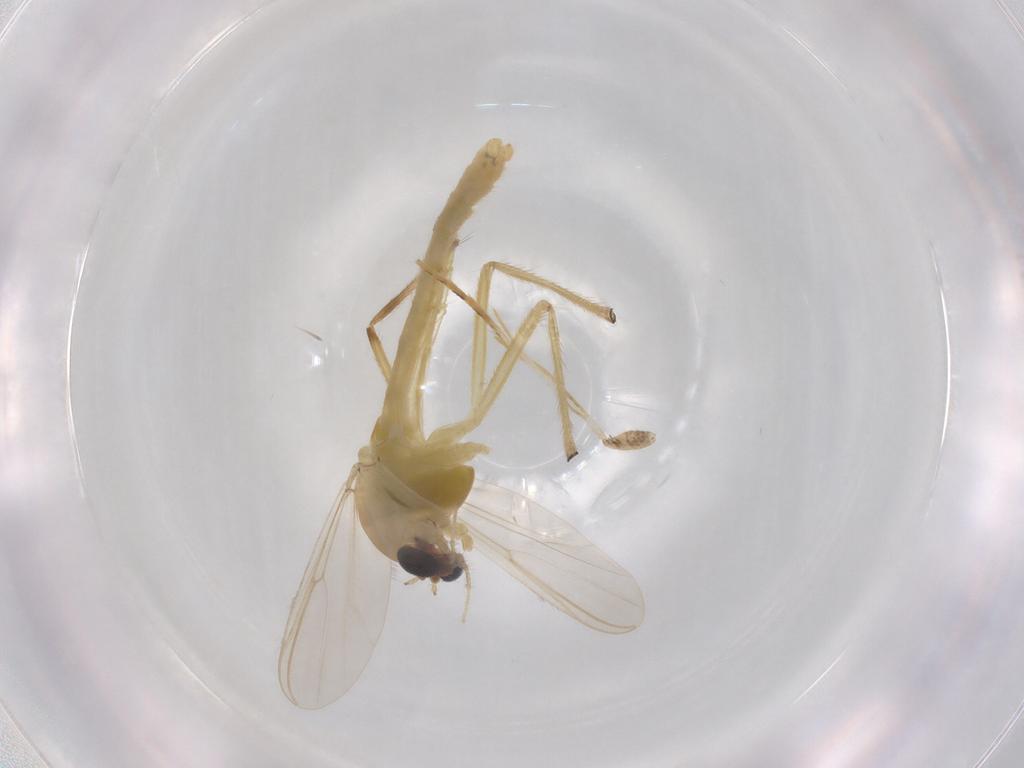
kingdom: Animalia
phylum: Arthropoda
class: Insecta
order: Diptera
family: Chironomidae
